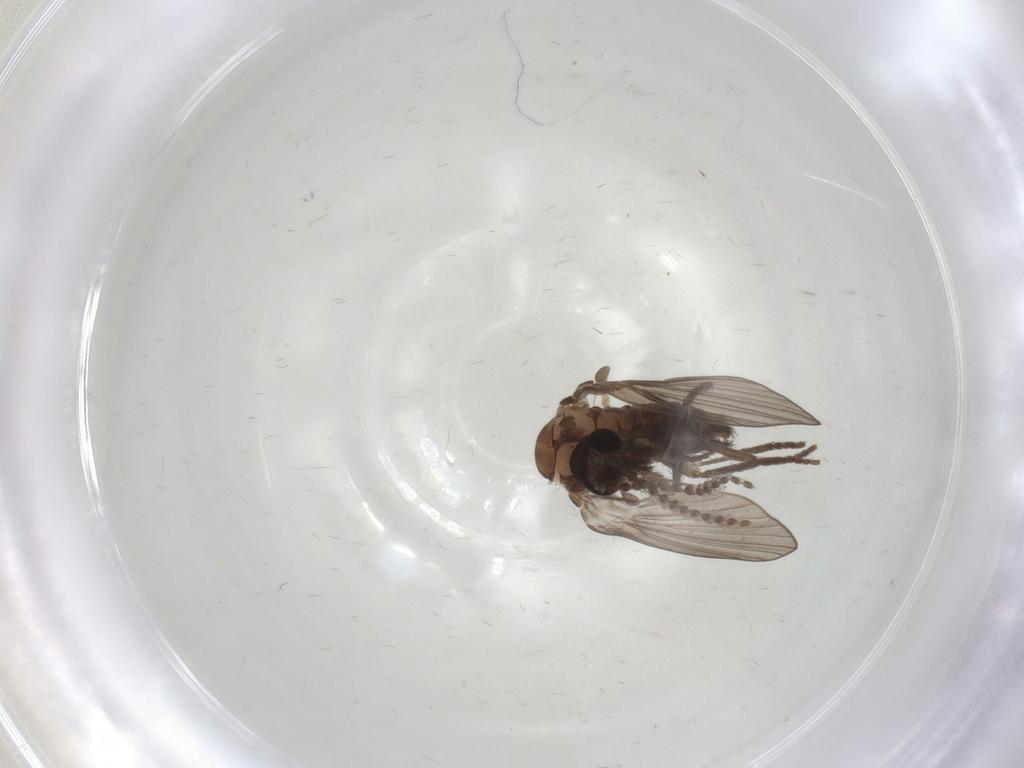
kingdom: Animalia
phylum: Arthropoda
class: Insecta
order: Diptera
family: Psychodidae
